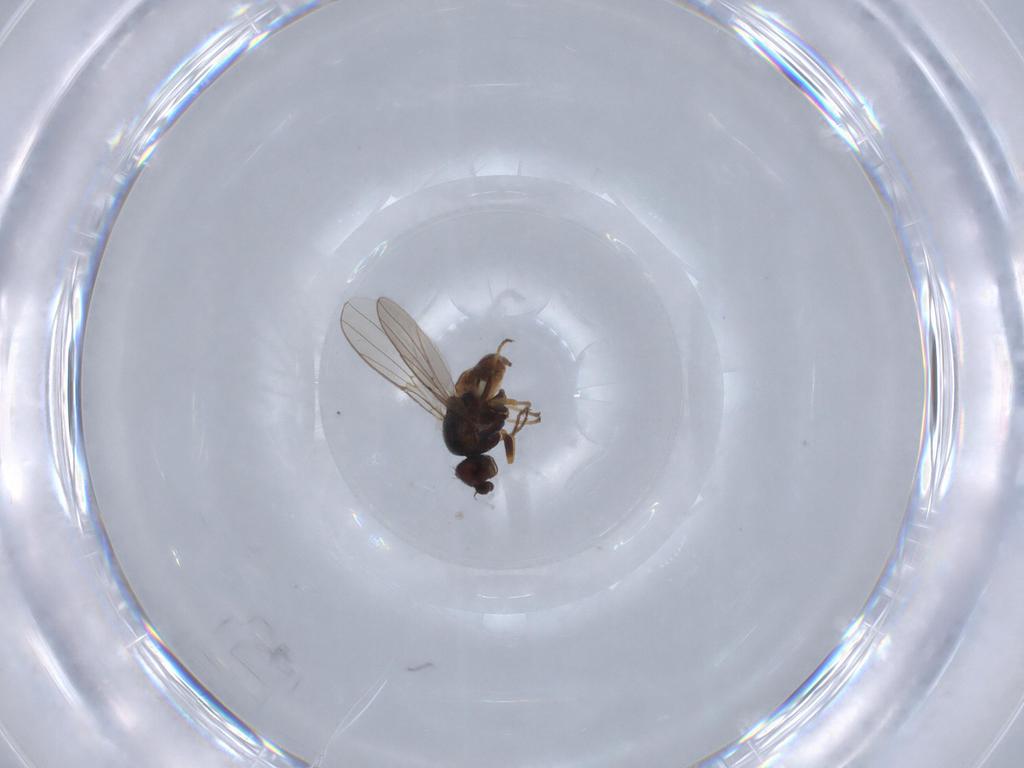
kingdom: Animalia
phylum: Arthropoda
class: Insecta
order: Diptera
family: Chloropidae
